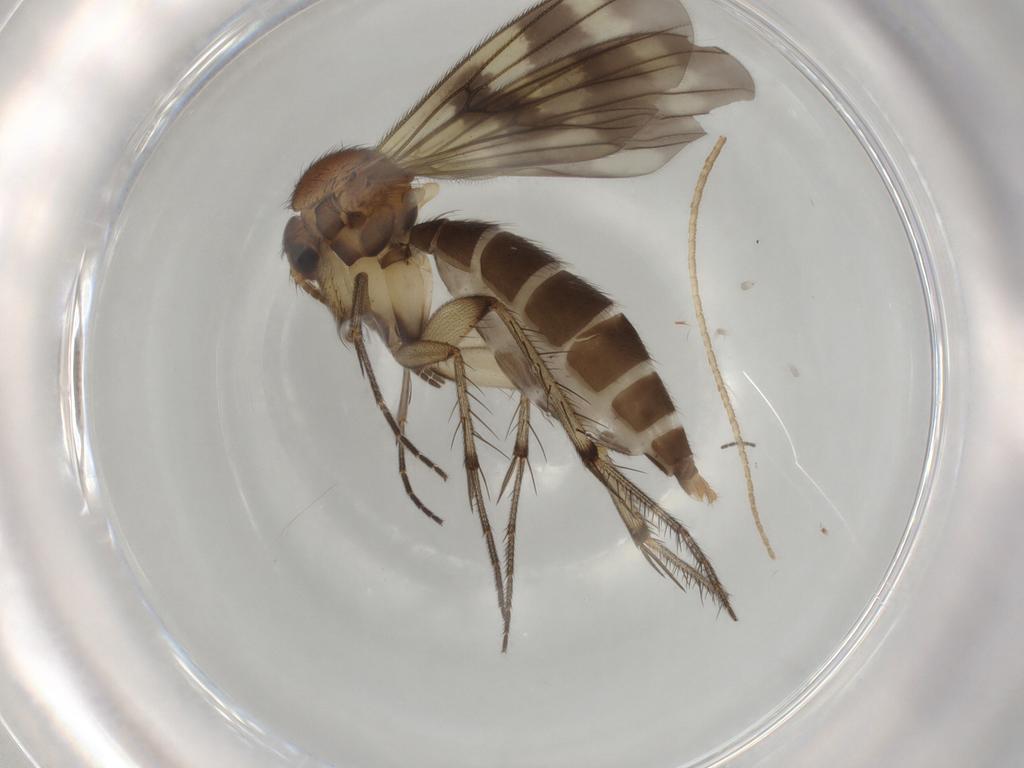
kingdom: Animalia
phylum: Arthropoda
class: Insecta
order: Diptera
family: Mycetophilidae
